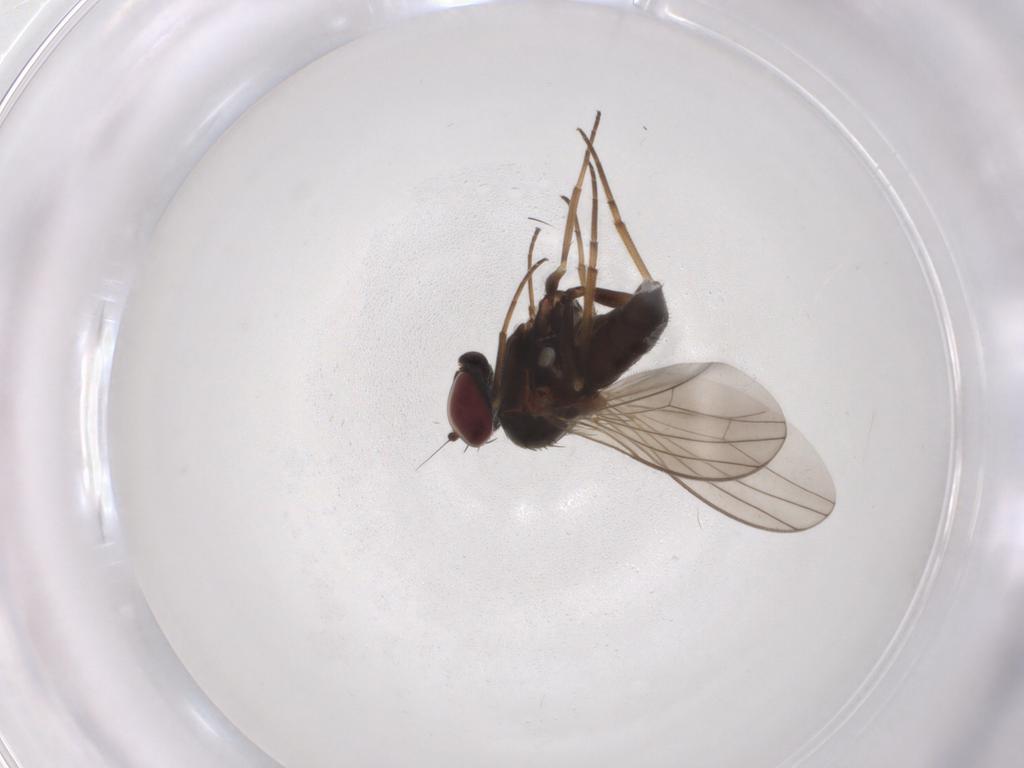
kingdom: Animalia
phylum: Arthropoda
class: Insecta
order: Diptera
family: Dolichopodidae
